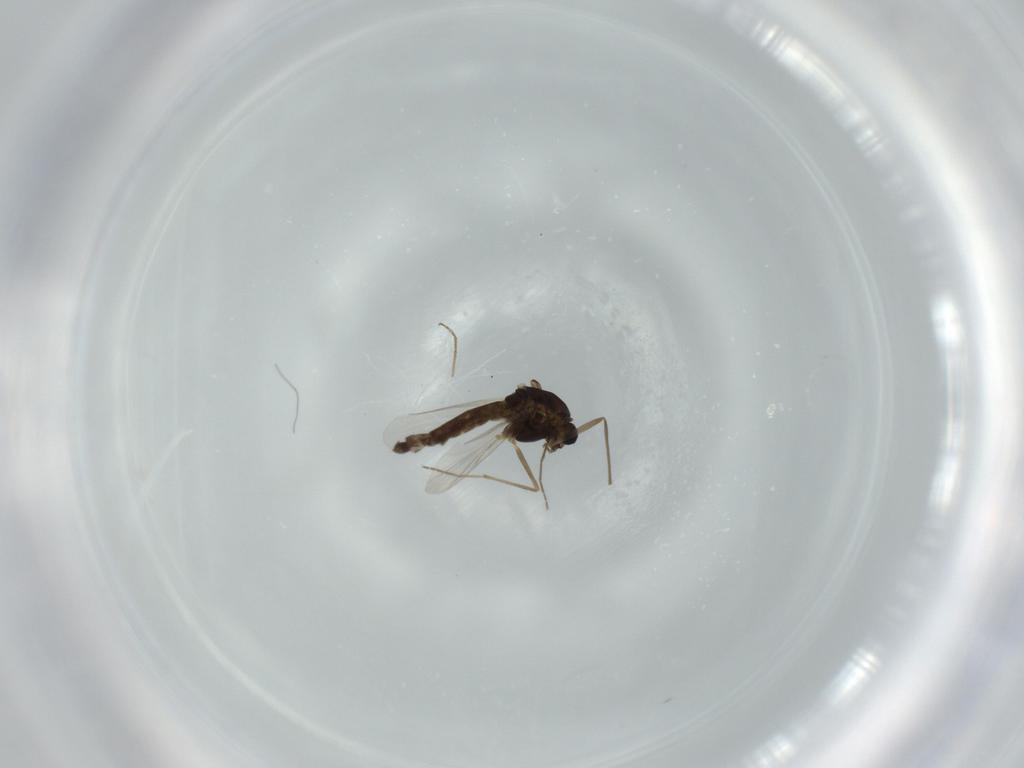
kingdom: Animalia
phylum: Arthropoda
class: Insecta
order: Diptera
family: Chironomidae
